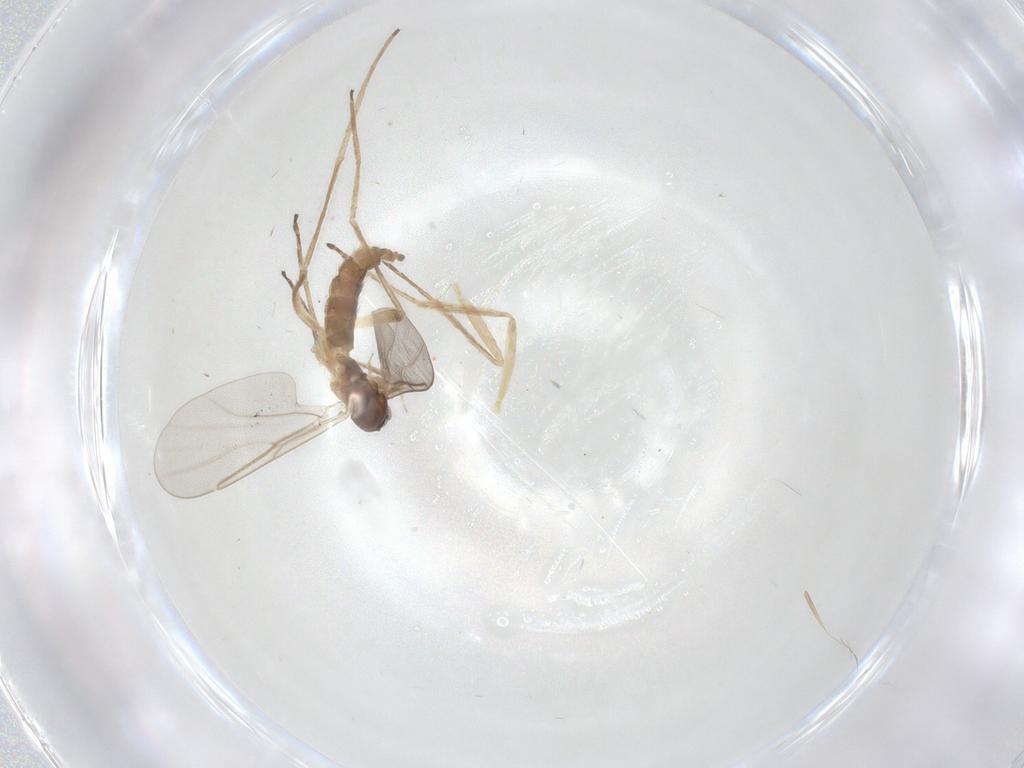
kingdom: Animalia
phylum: Arthropoda
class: Insecta
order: Diptera
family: Cecidomyiidae
